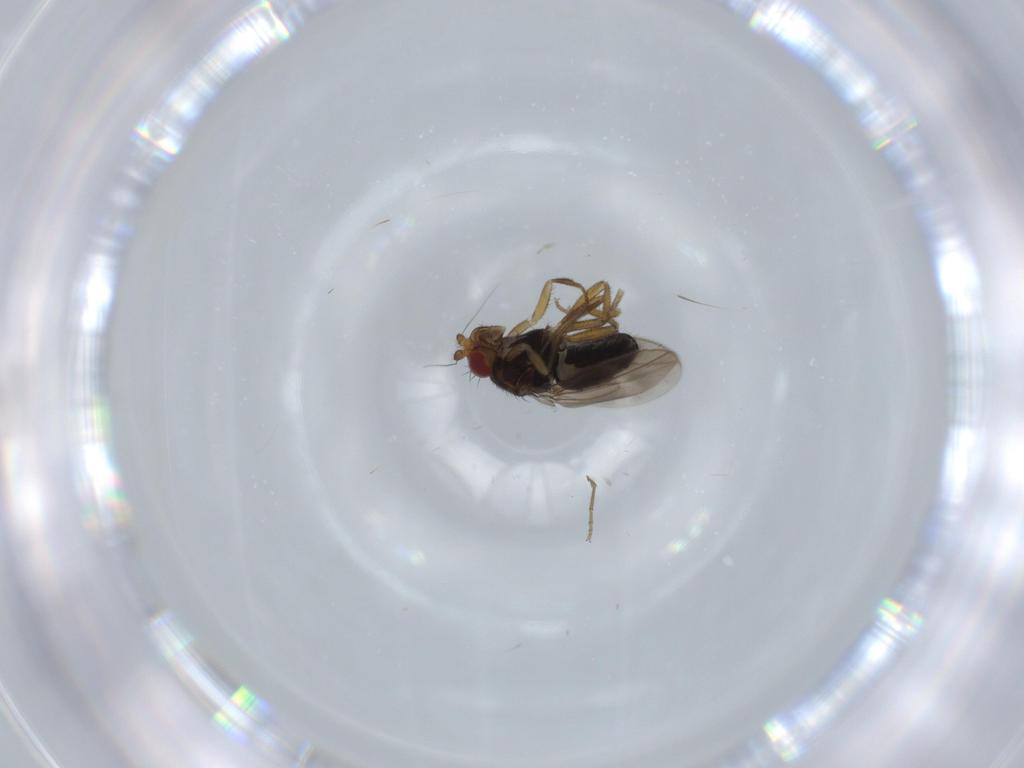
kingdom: Animalia
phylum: Arthropoda
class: Insecta
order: Diptera
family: Sphaeroceridae
